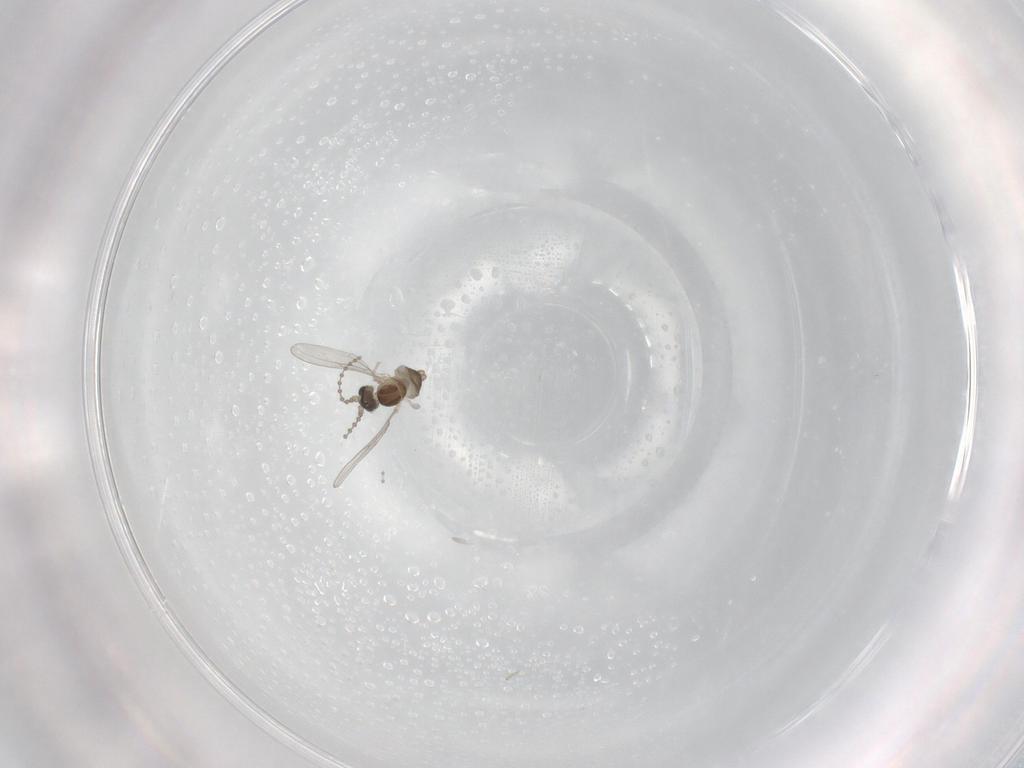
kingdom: Animalia
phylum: Arthropoda
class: Insecta
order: Diptera
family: Cecidomyiidae
